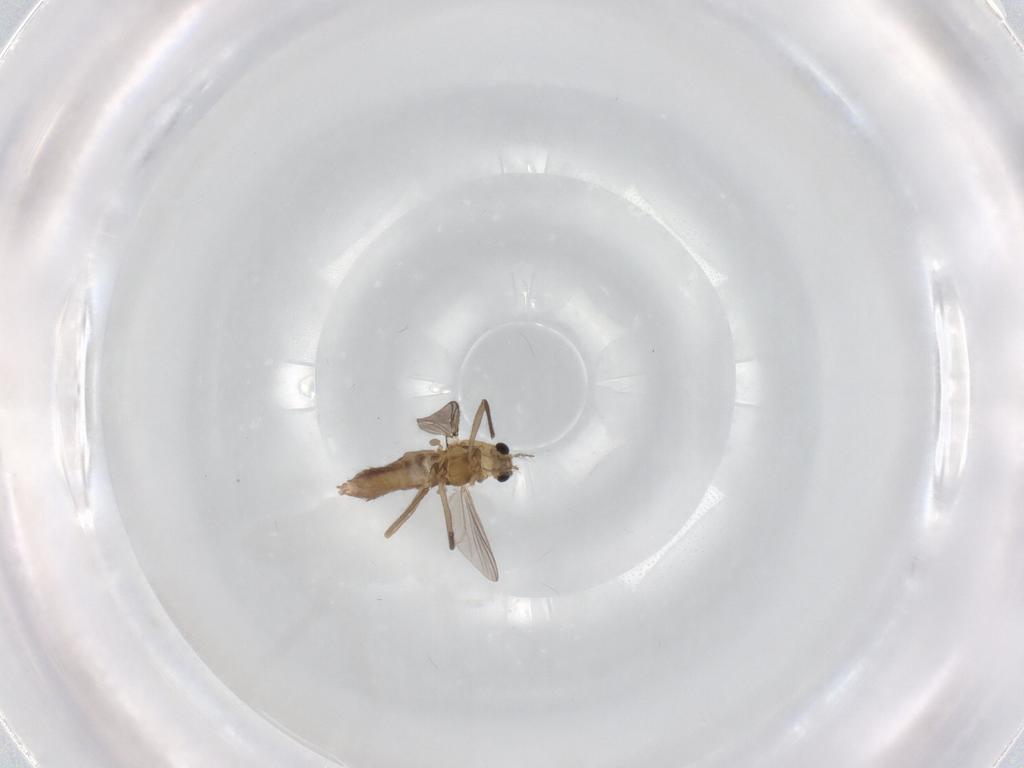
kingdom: Animalia
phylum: Arthropoda
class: Insecta
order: Diptera
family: Chironomidae
